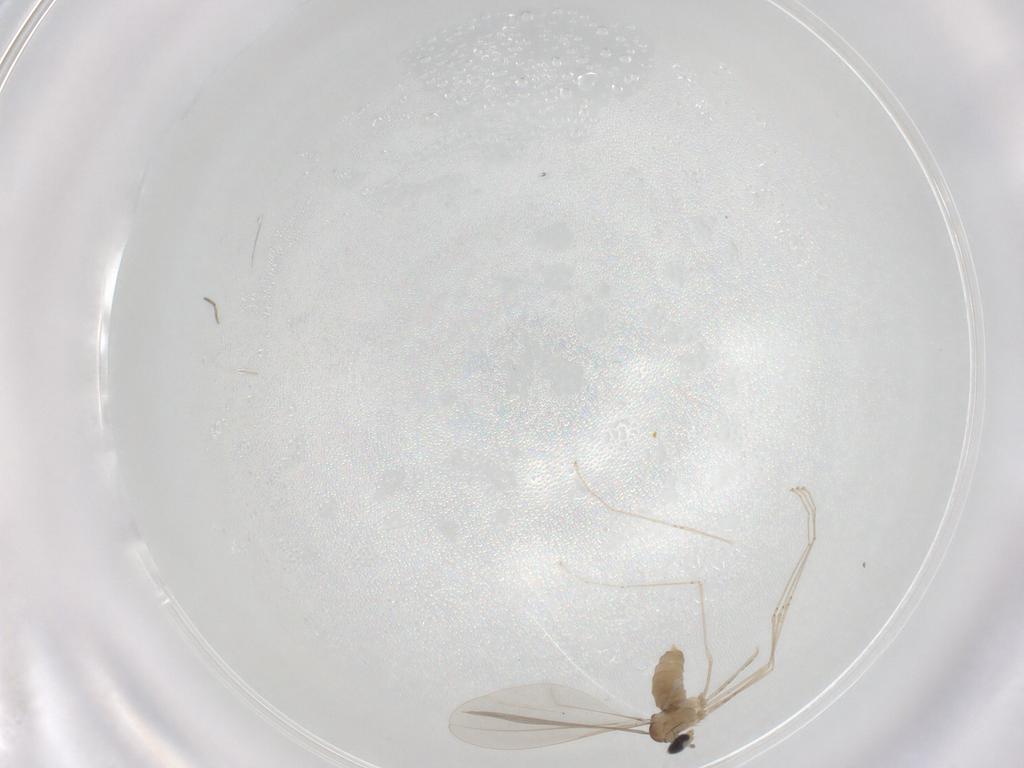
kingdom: Animalia
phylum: Arthropoda
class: Insecta
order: Diptera
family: Cecidomyiidae
